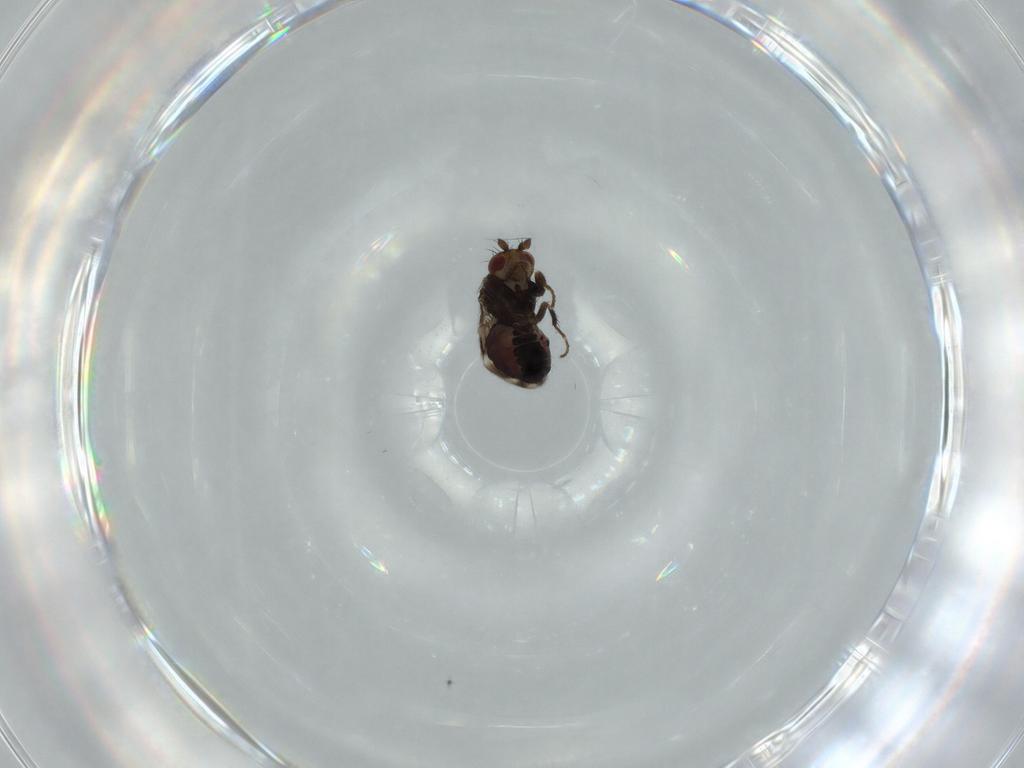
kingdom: Animalia
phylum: Arthropoda
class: Insecta
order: Diptera
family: Sphaeroceridae
